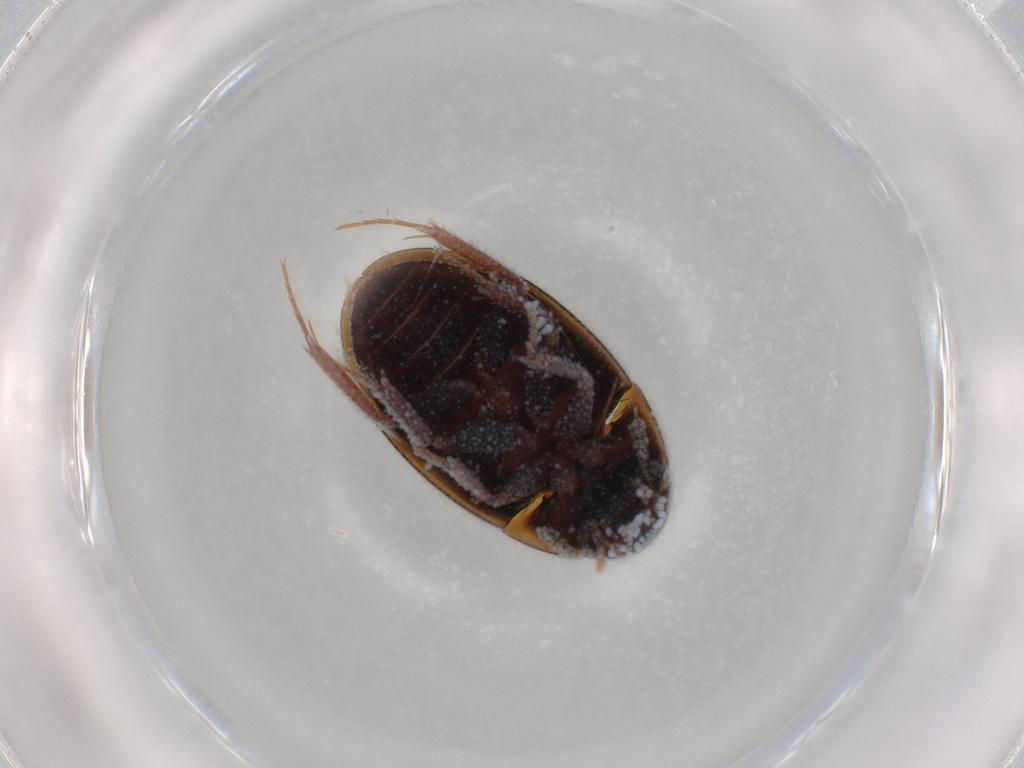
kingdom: Animalia
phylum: Arthropoda
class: Insecta
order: Coleoptera
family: Hydrophilidae
